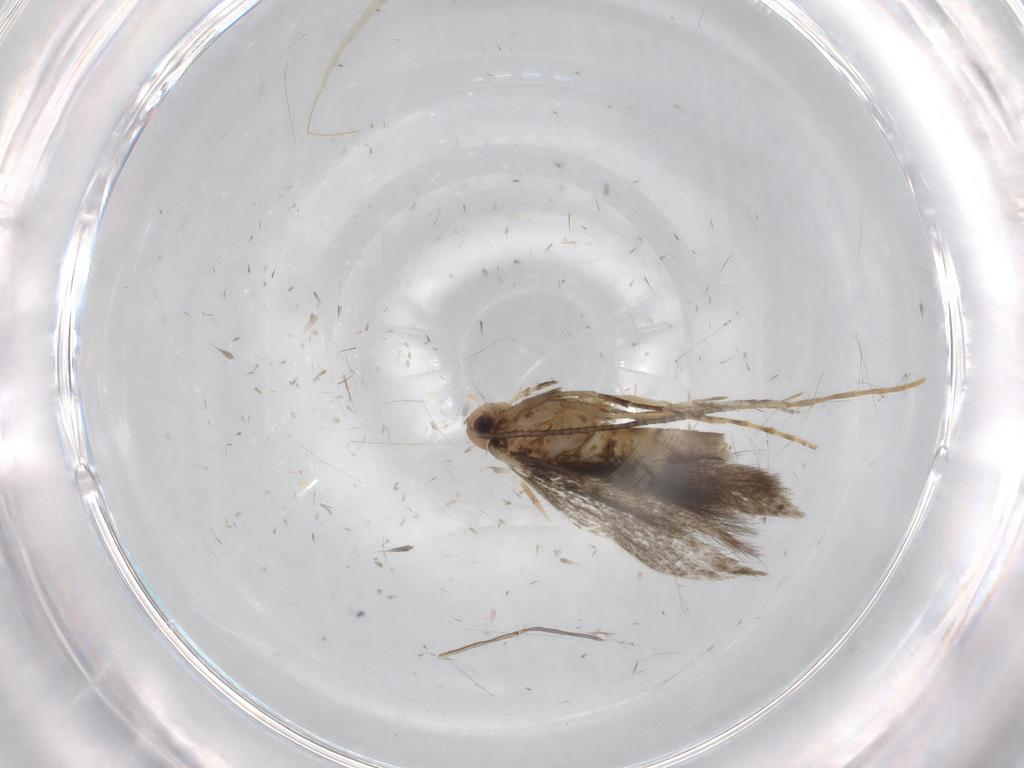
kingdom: Animalia
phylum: Arthropoda
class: Insecta
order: Lepidoptera
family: Gracillariidae
